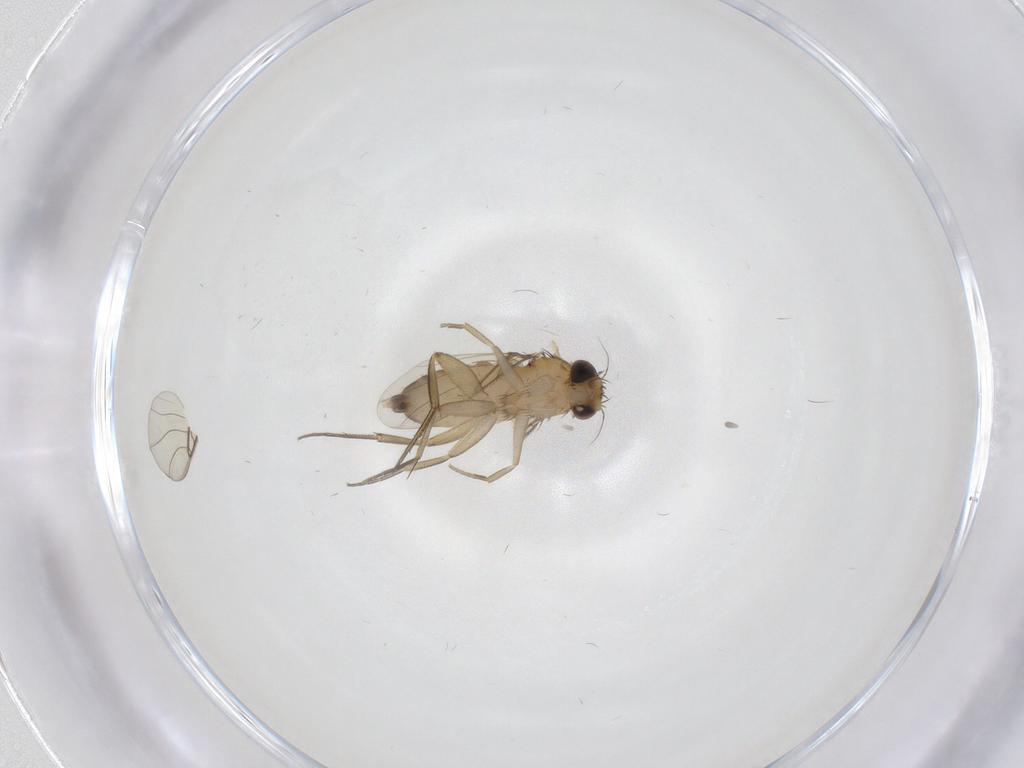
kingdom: Animalia
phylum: Arthropoda
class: Insecta
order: Diptera
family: Phoridae
